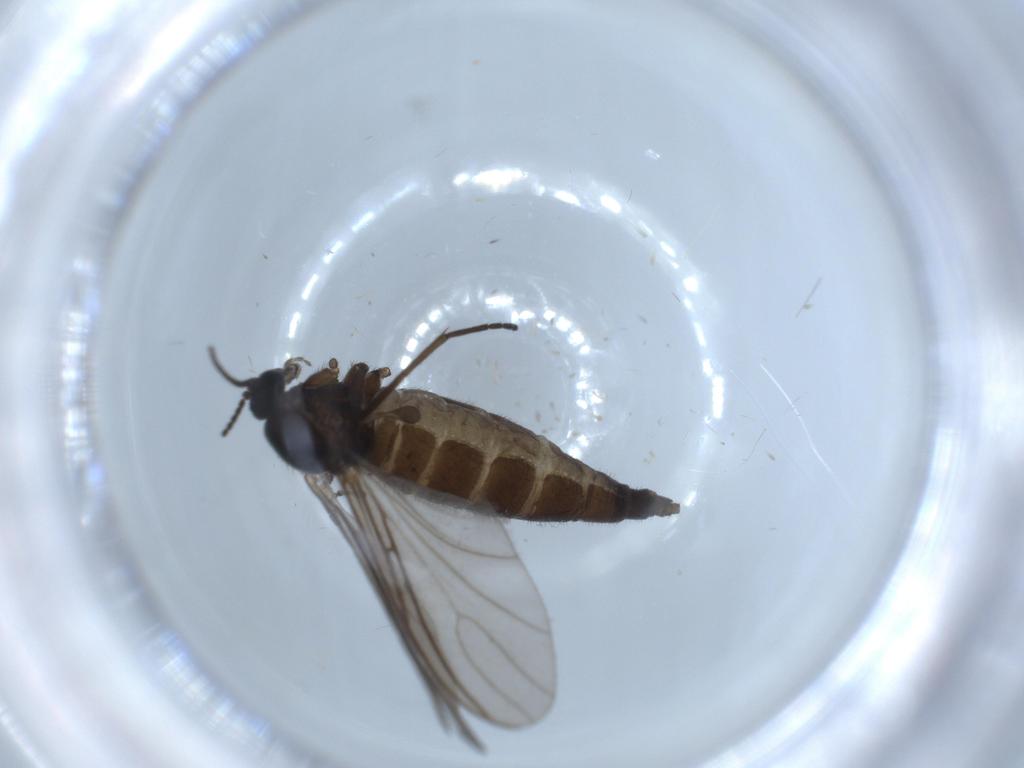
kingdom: Animalia
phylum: Arthropoda
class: Insecta
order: Diptera
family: Sciaridae
